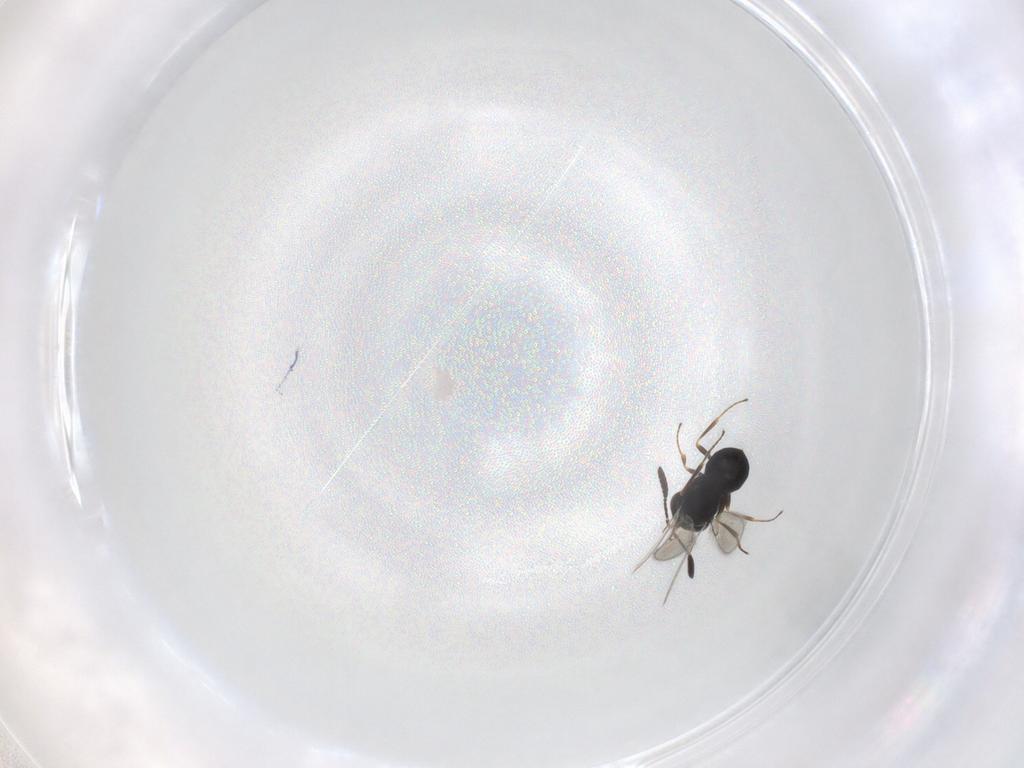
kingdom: Animalia
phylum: Arthropoda
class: Insecta
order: Hymenoptera
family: Scelionidae
